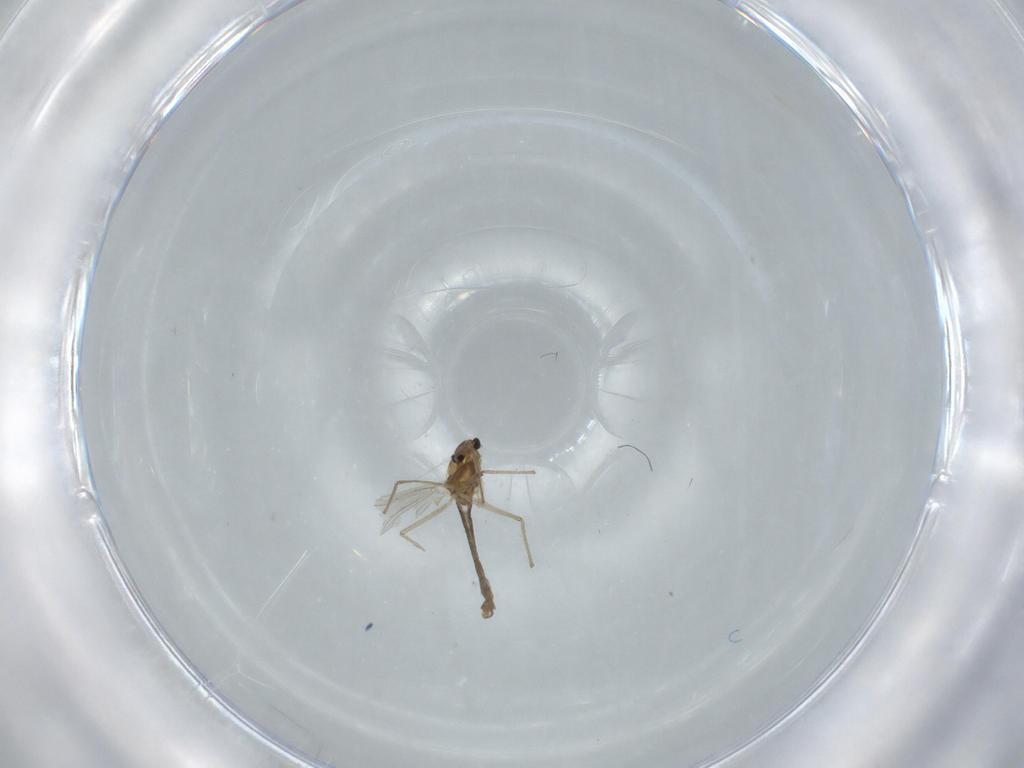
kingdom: Animalia
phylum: Arthropoda
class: Insecta
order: Diptera
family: Chironomidae
